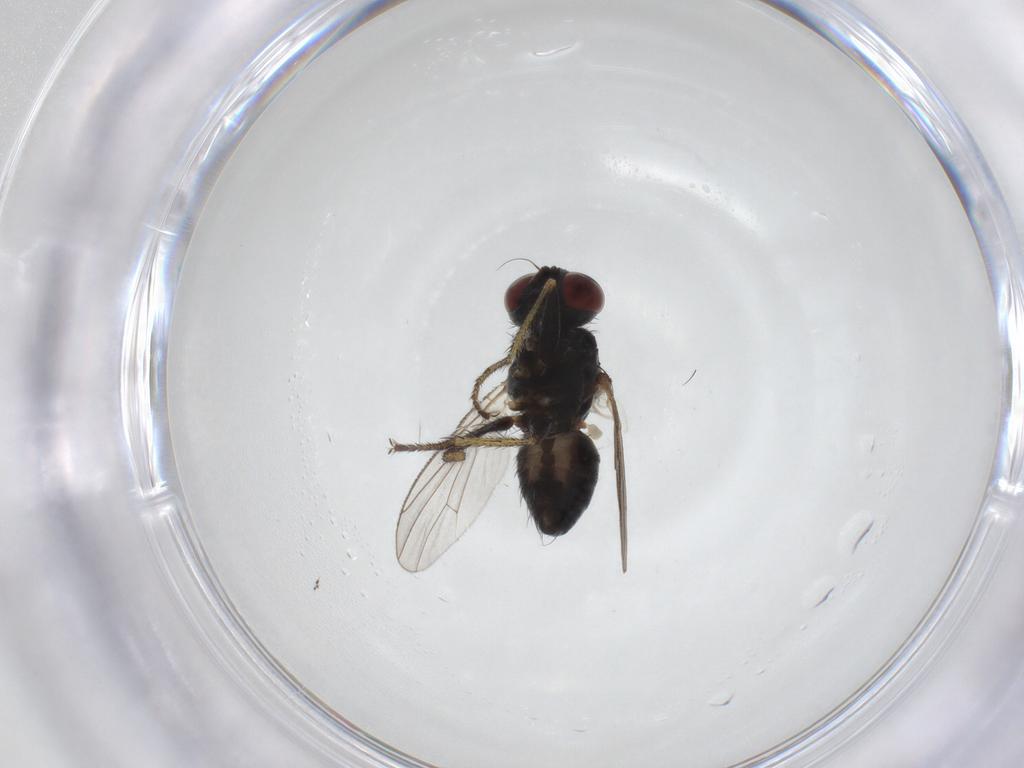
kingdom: Animalia
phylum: Arthropoda
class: Insecta
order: Diptera
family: Muscidae
